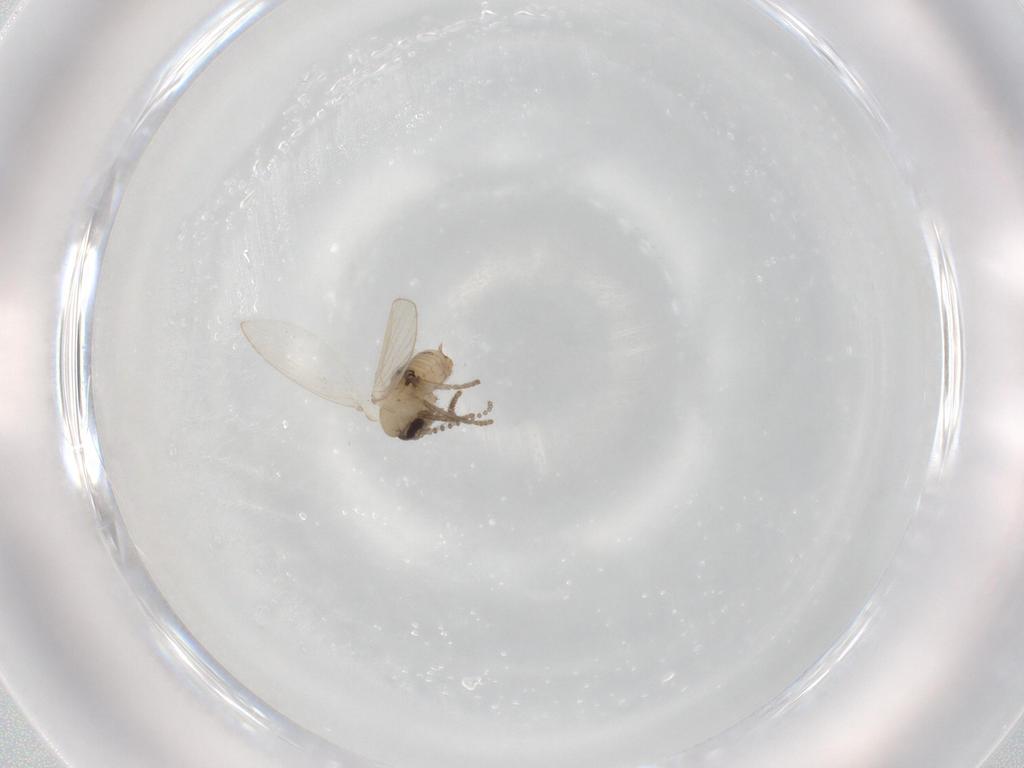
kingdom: Animalia
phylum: Arthropoda
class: Insecta
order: Diptera
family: Psychodidae
